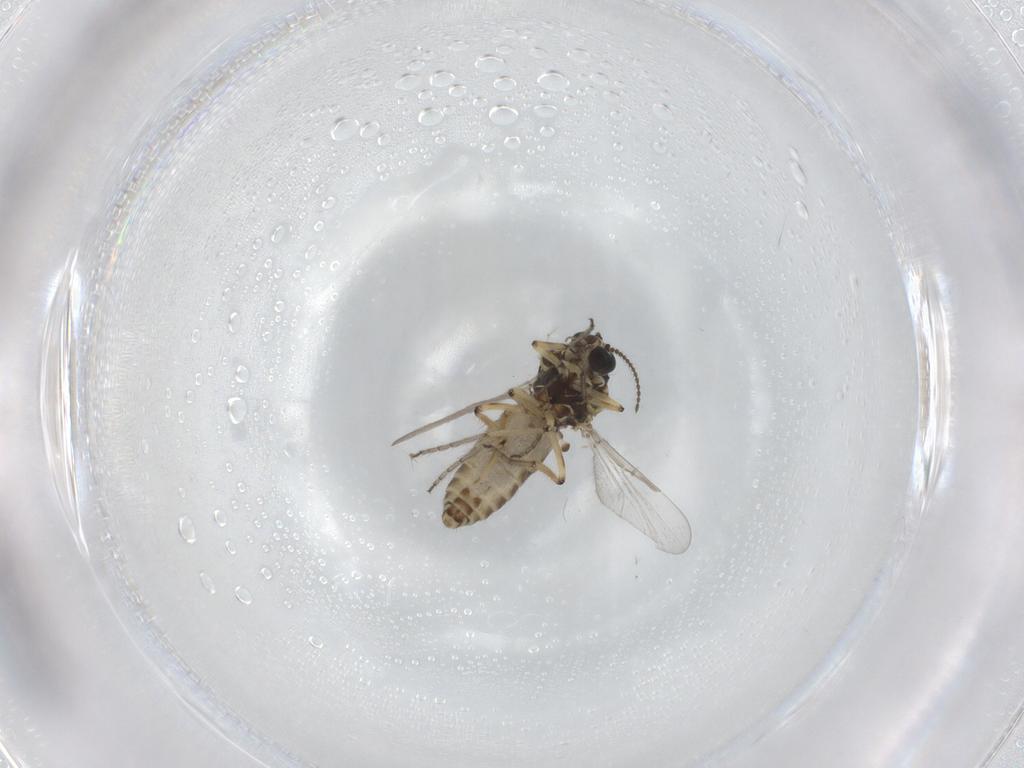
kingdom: Animalia
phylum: Arthropoda
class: Insecta
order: Diptera
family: Ceratopogonidae
